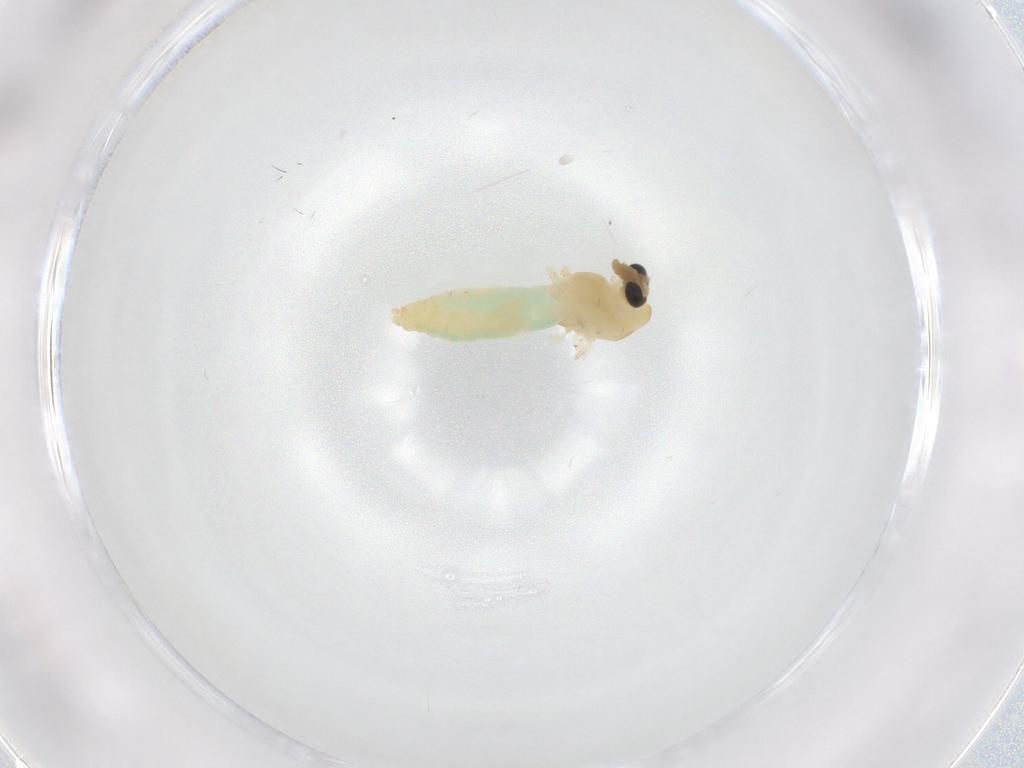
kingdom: Animalia
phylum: Arthropoda
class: Insecta
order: Diptera
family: Chironomidae
